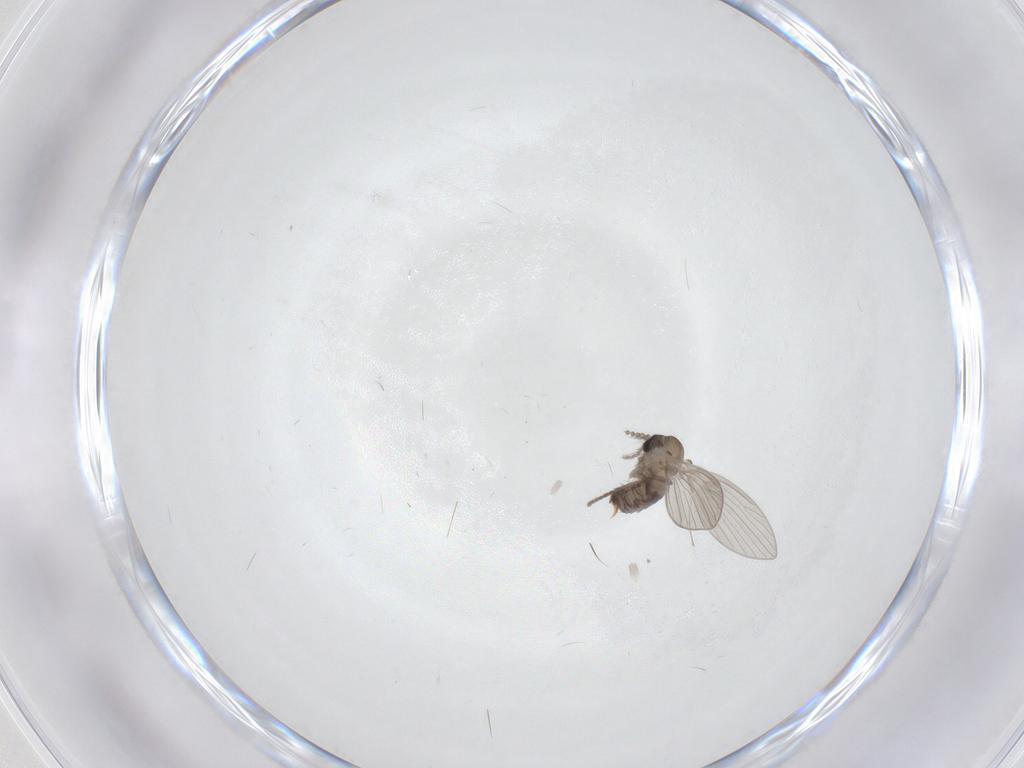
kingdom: Animalia
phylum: Arthropoda
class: Insecta
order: Diptera
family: Psychodidae
